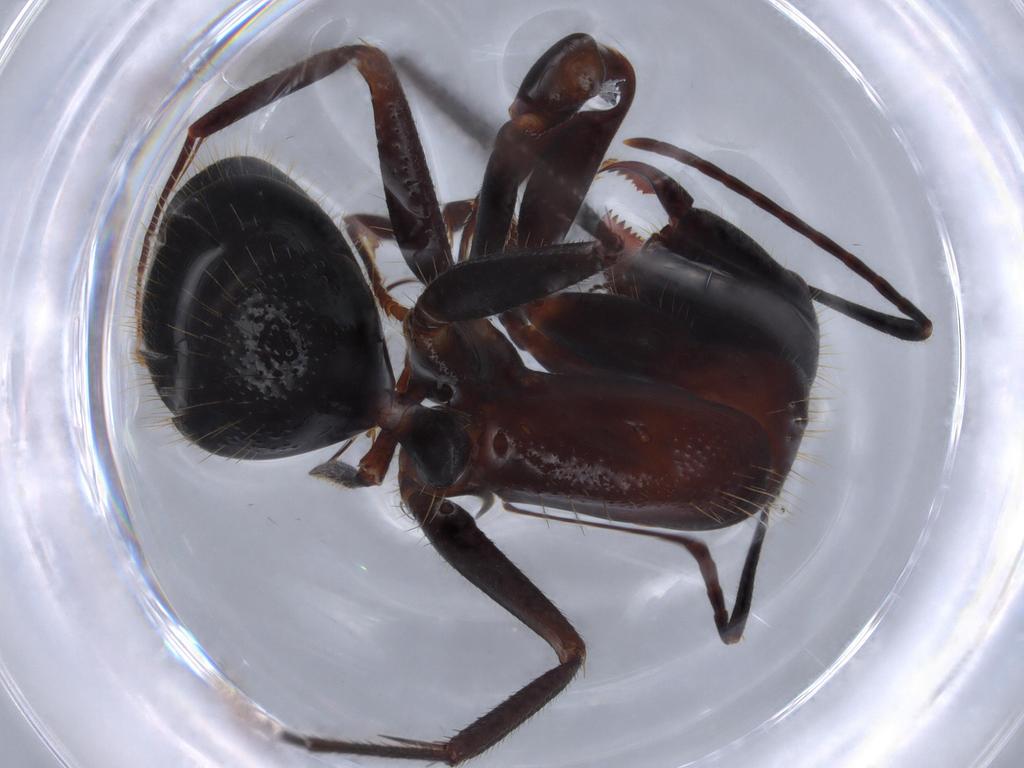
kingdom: Animalia
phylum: Arthropoda
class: Insecta
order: Hymenoptera
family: Formicidae
